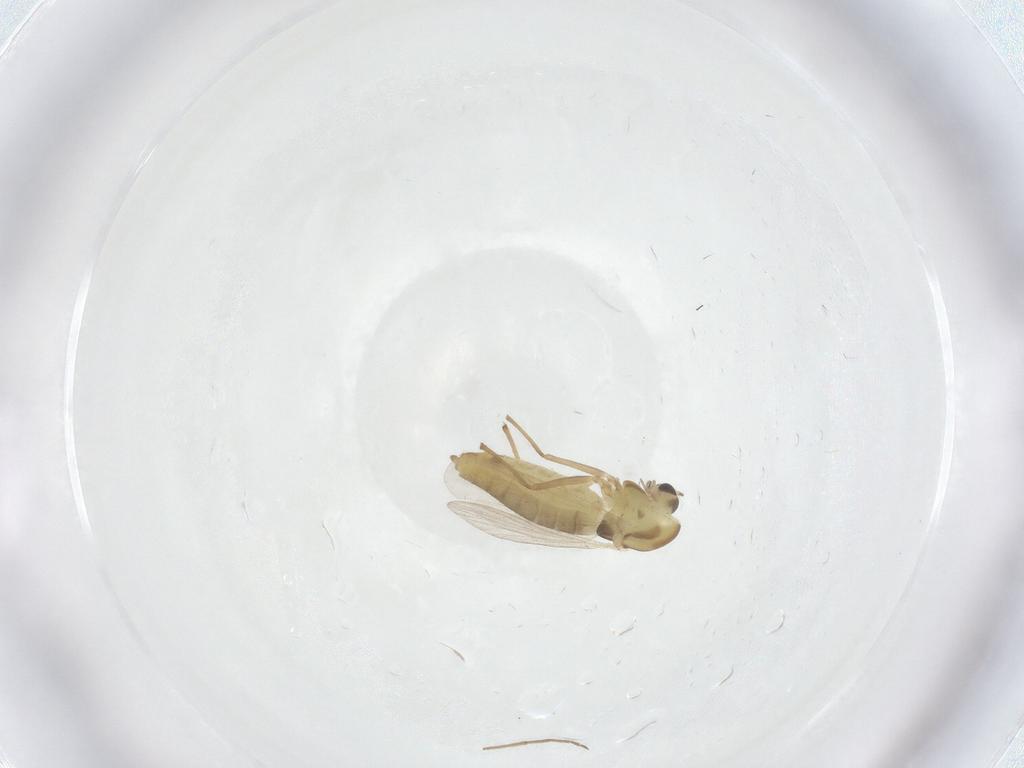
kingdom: Animalia
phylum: Arthropoda
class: Insecta
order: Diptera
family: Chironomidae
